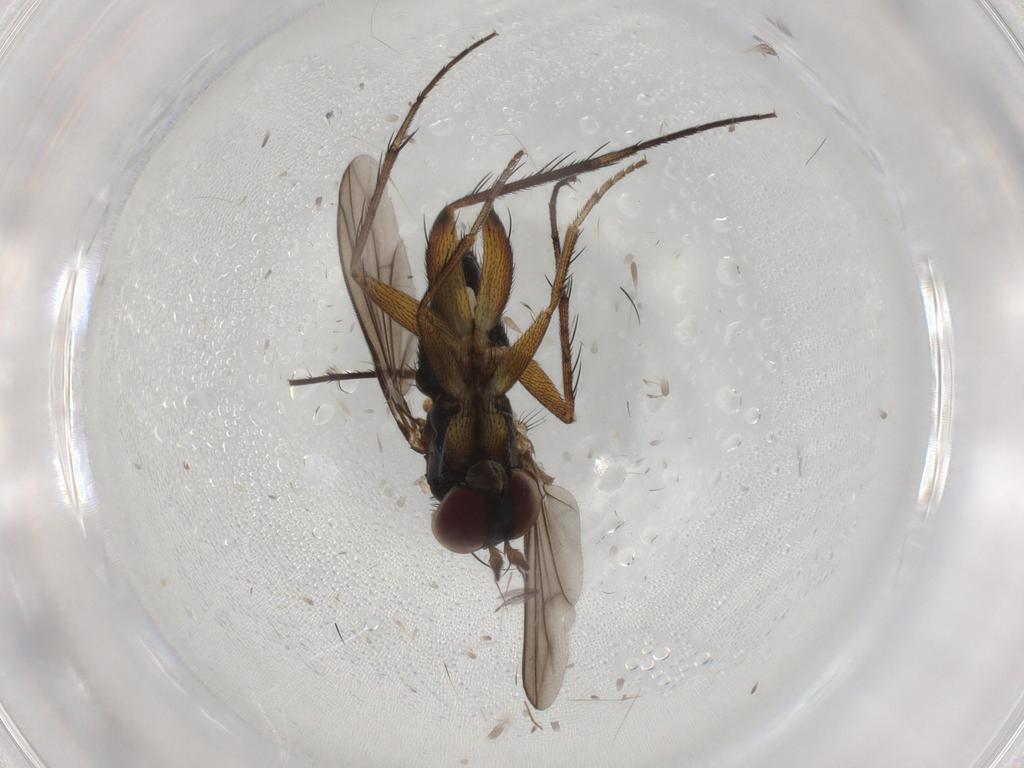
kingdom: Animalia
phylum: Arthropoda
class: Insecta
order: Diptera
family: Dolichopodidae
